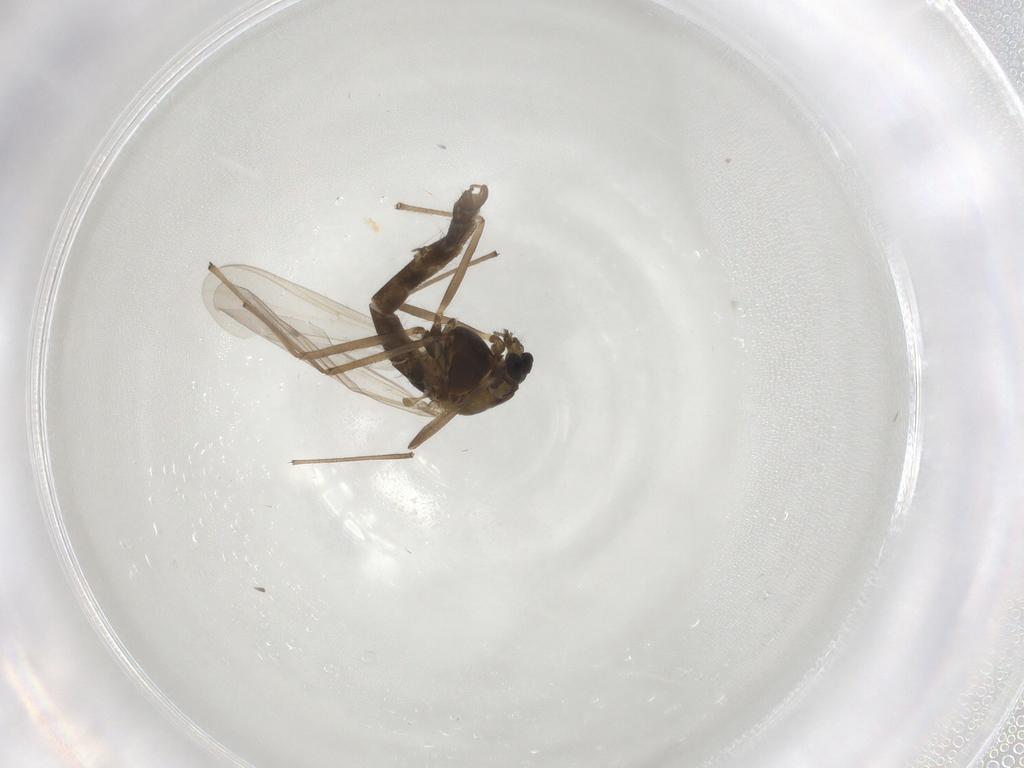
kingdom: Animalia
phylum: Arthropoda
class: Insecta
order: Diptera
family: Chironomidae
